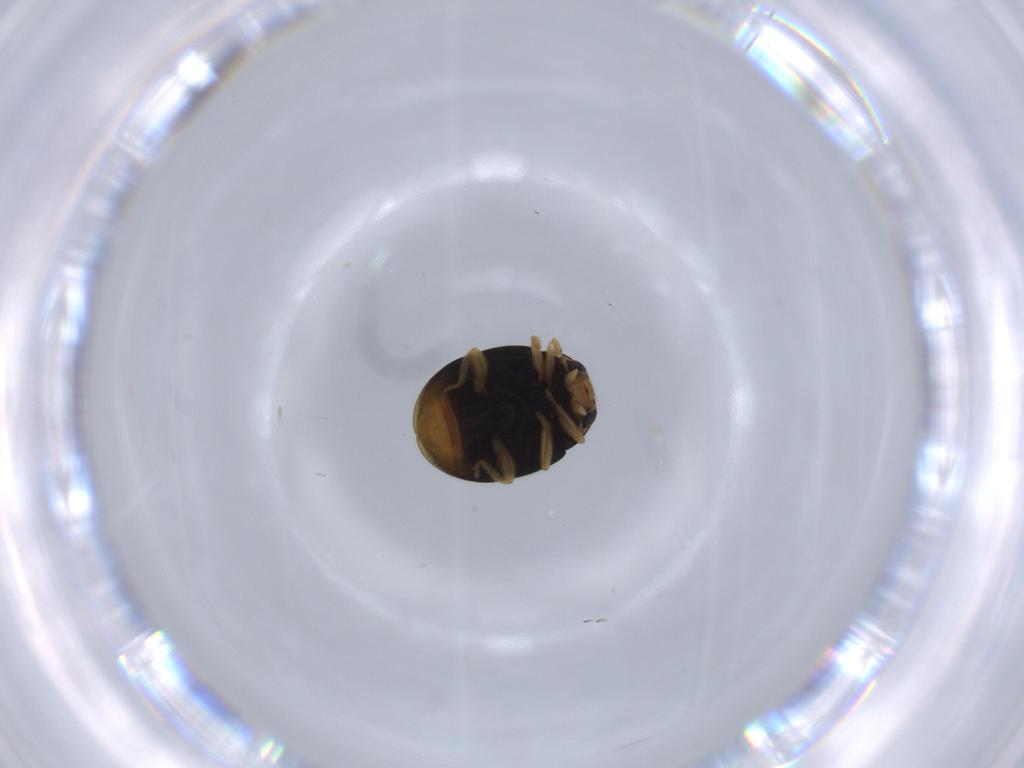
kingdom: Animalia
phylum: Arthropoda
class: Insecta
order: Coleoptera
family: Coccinellidae
